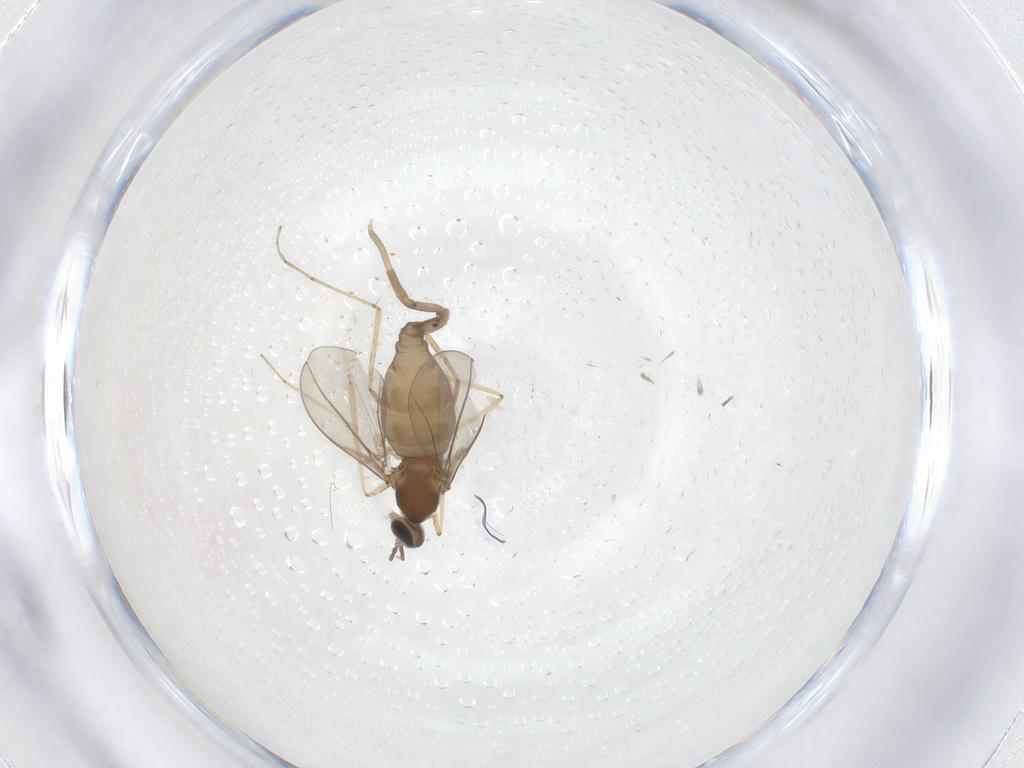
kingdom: Animalia
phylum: Arthropoda
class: Insecta
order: Diptera
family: Cecidomyiidae
